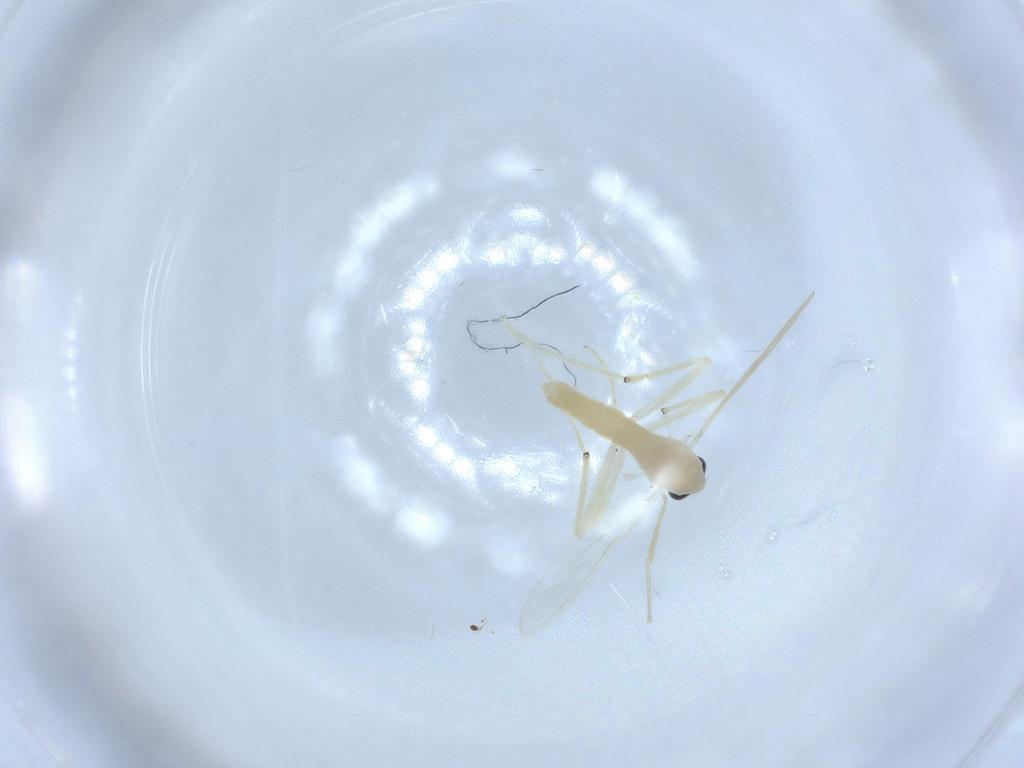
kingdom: Animalia
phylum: Arthropoda
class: Insecta
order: Diptera
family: Chironomidae
